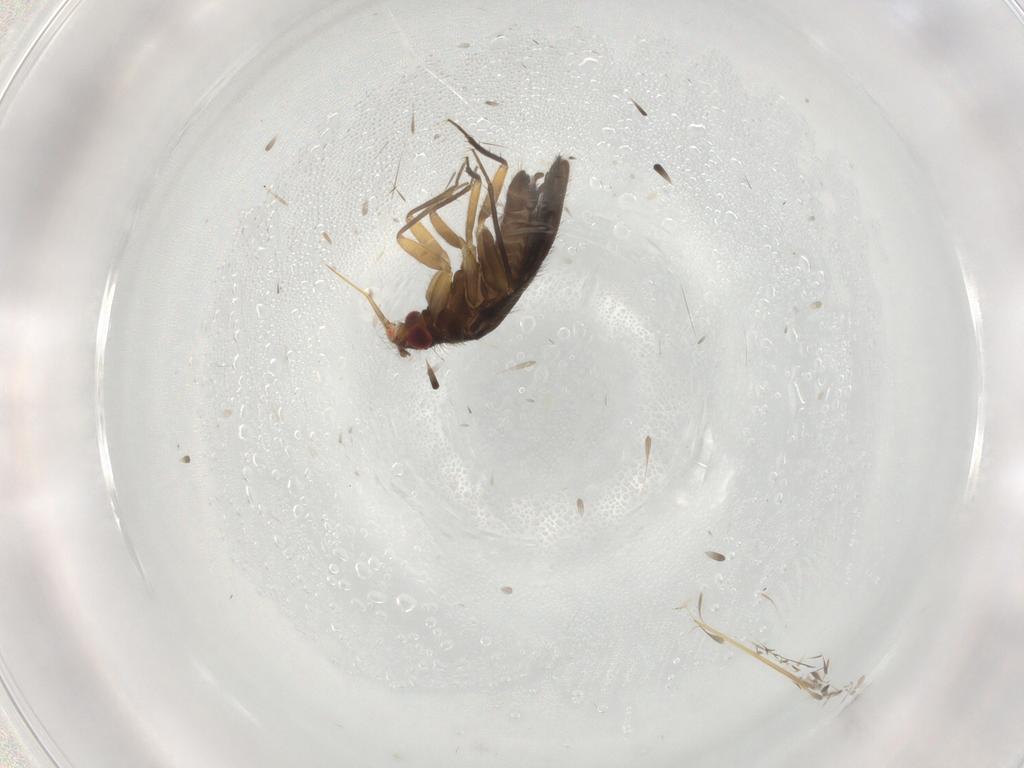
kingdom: Animalia
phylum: Arthropoda
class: Insecta
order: Hemiptera
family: Ceratocombidae
